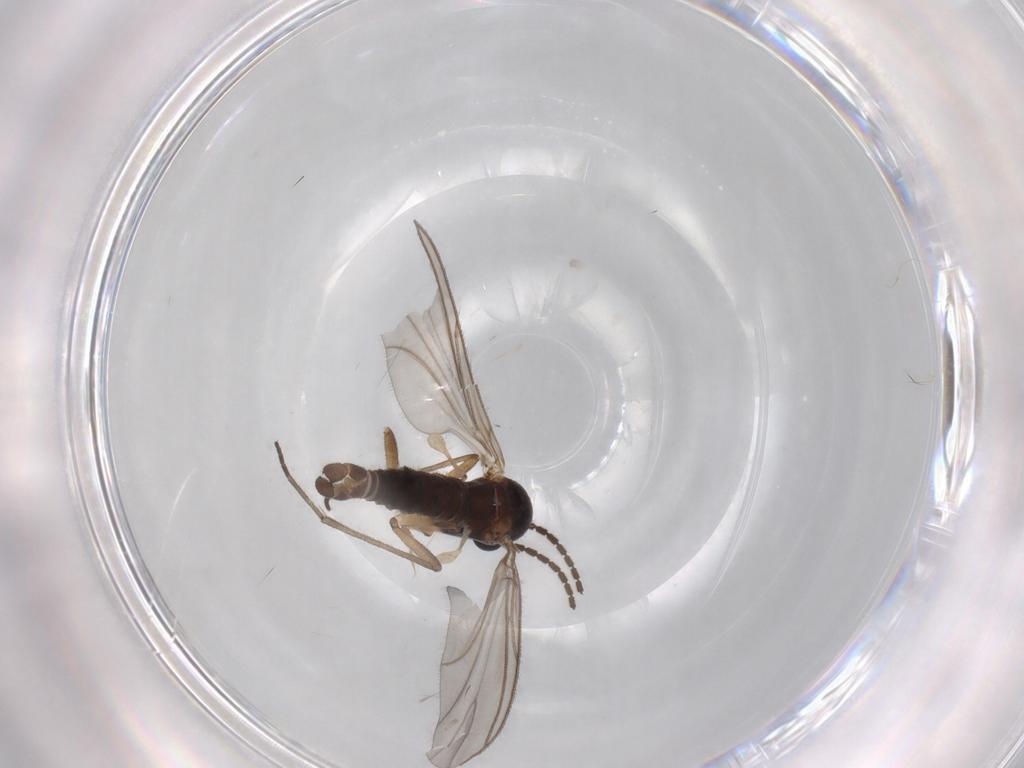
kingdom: Animalia
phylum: Arthropoda
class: Insecta
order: Diptera
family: Sciaridae
